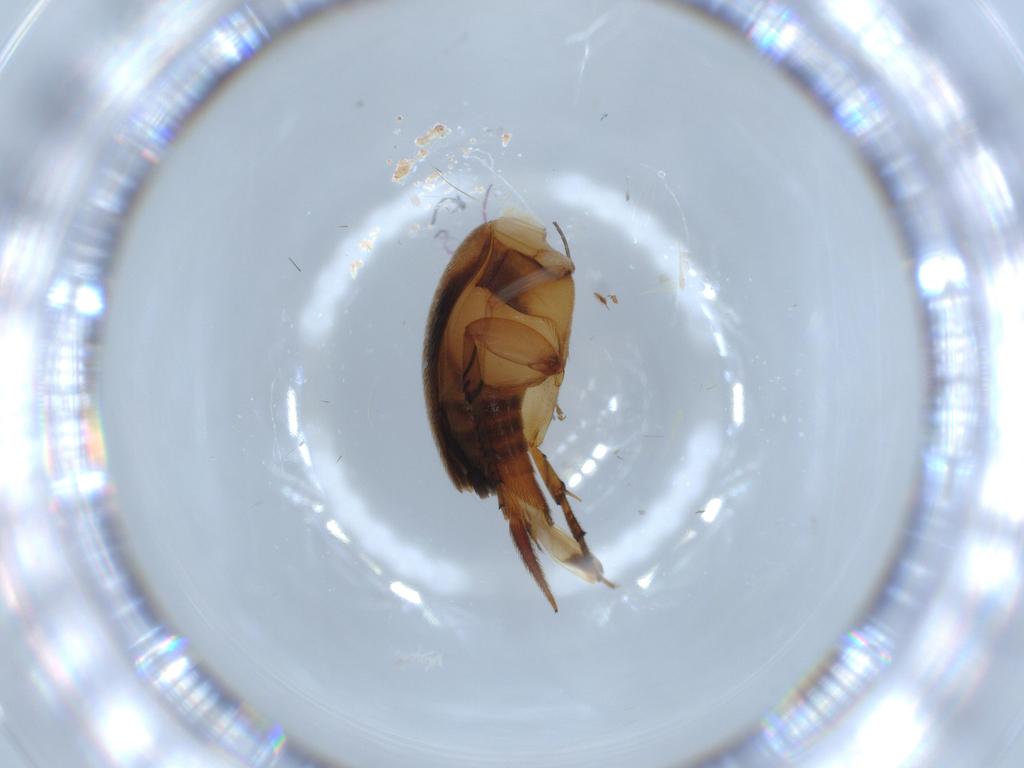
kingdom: Animalia
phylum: Arthropoda
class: Insecta
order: Coleoptera
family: Mordellidae
